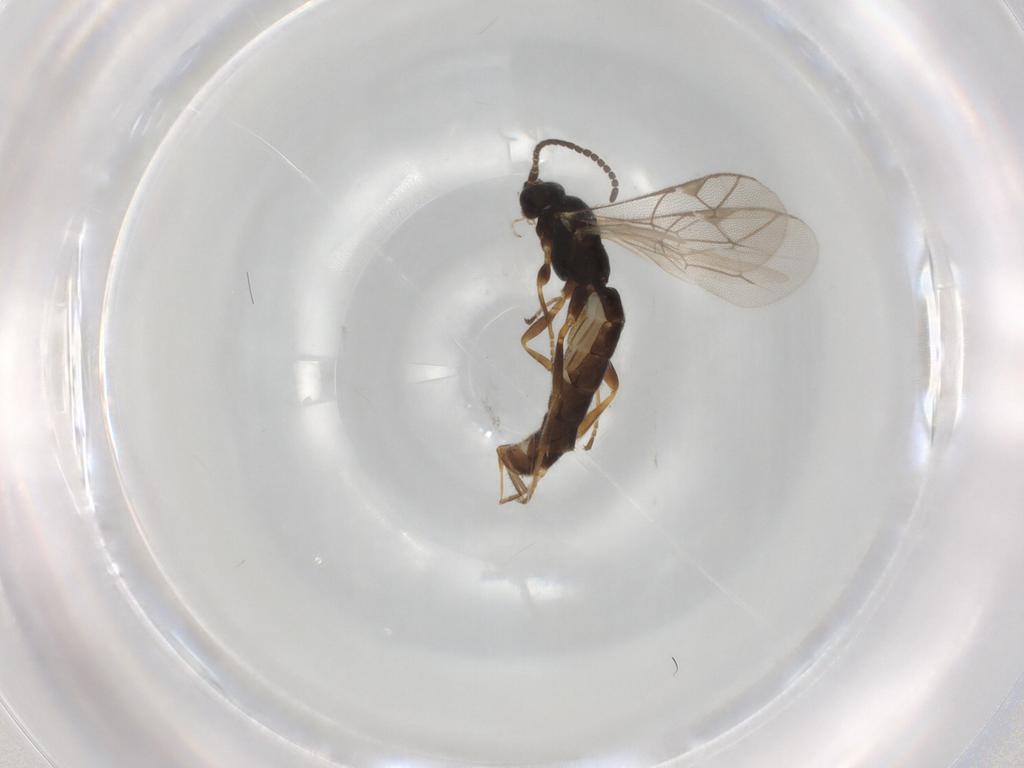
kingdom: Animalia
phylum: Arthropoda
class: Insecta
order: Hymenoptera
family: Ichneumonidae
